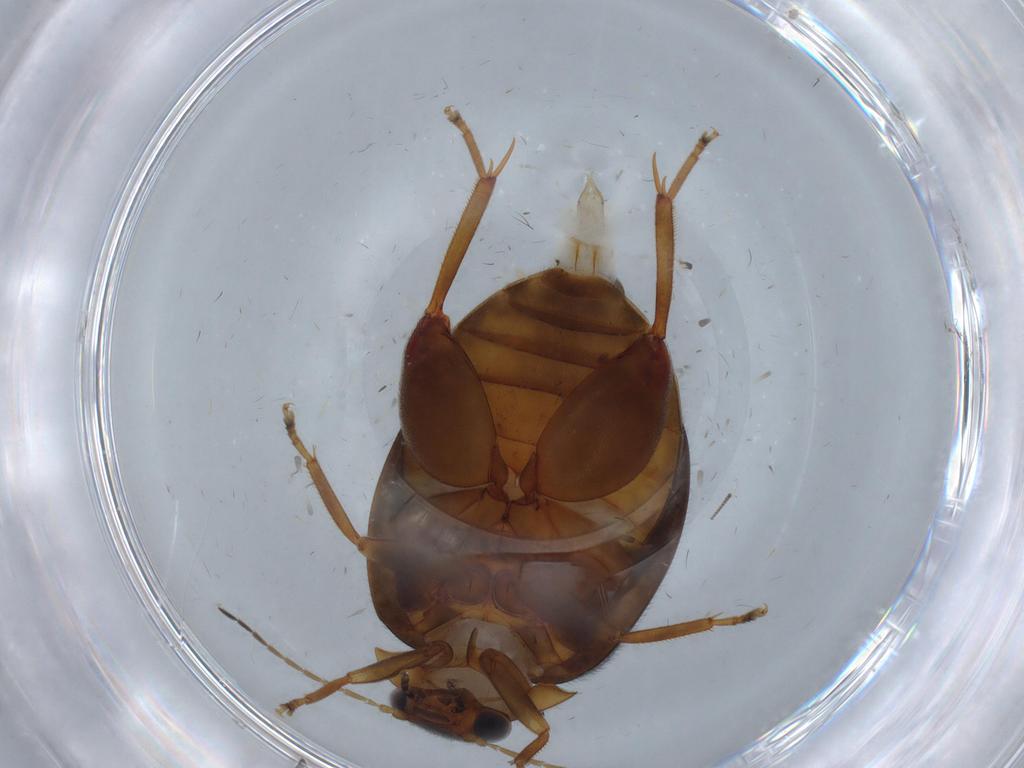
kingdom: Animalia
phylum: Arthropoda
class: Insecta
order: Coleoptera
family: Scirtidae
